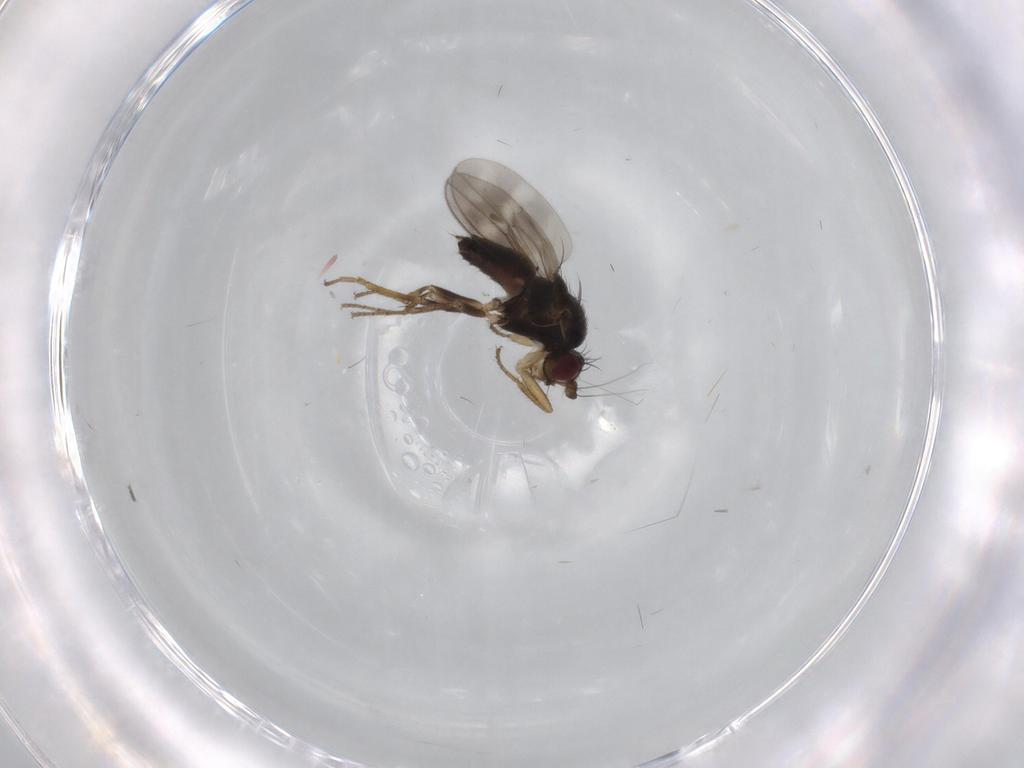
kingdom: Animalia
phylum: Arthropoda
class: Insecta
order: Diptera
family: Sphaeroceridae
